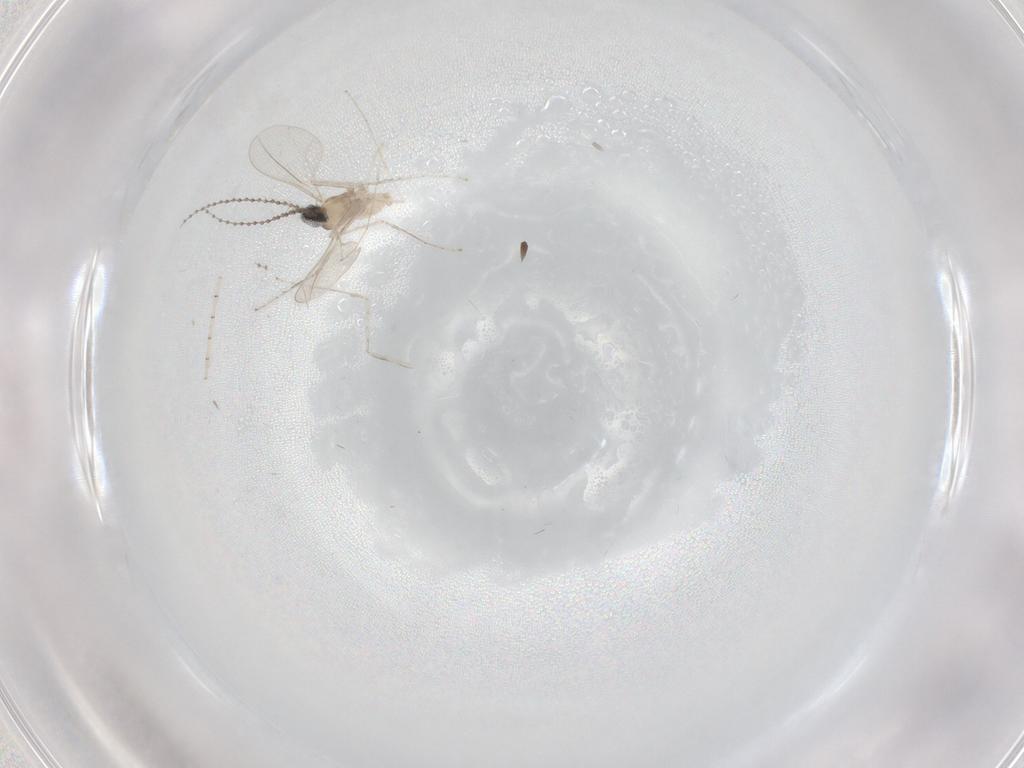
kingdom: Animalia
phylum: Arthropoda
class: Insecta
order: Diptera
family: Cecidomyiidae
